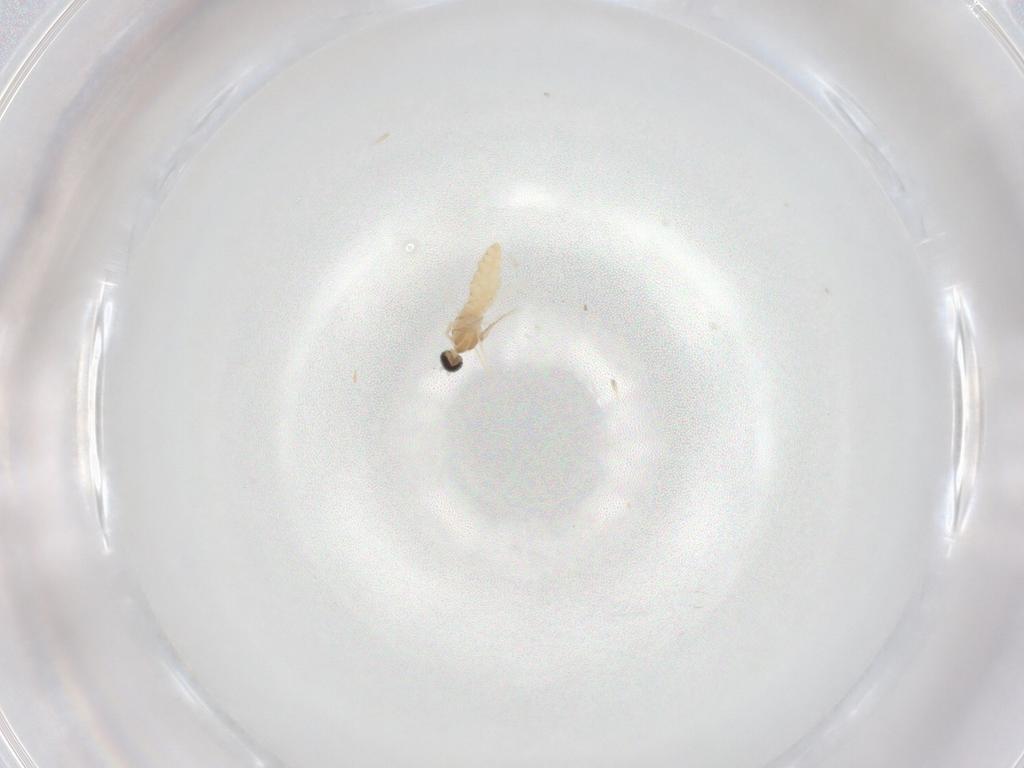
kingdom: Animalia
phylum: Arthropoda
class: Insecta
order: Diptera
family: Cecidomyiidae
